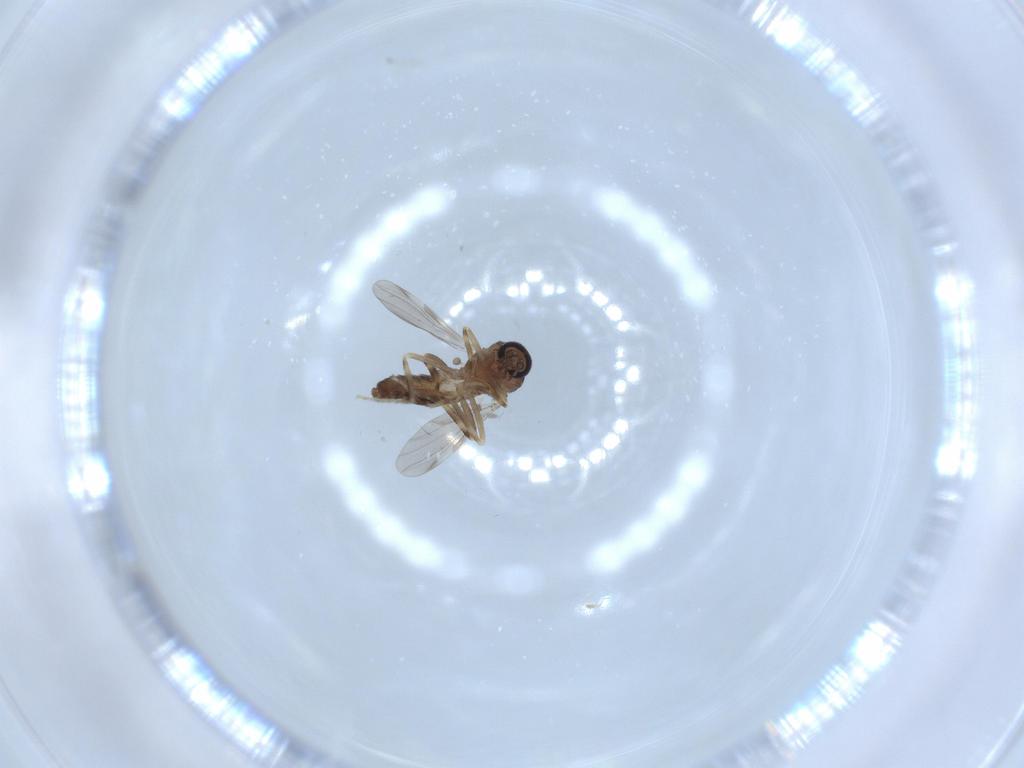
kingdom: Animalia
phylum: Arthropoda
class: Insecta
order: Diptera
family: Ceratopogonidae
